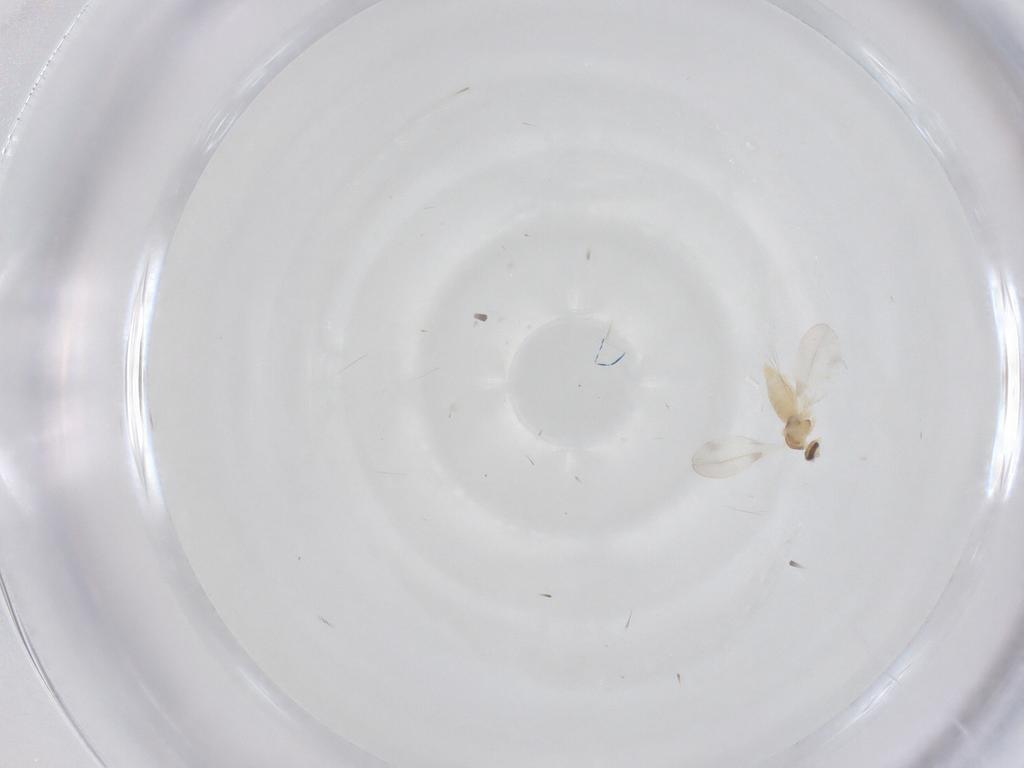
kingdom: Animalia
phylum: Arthropoda
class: Insecta
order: Diptera
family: Cecidomyiidae
